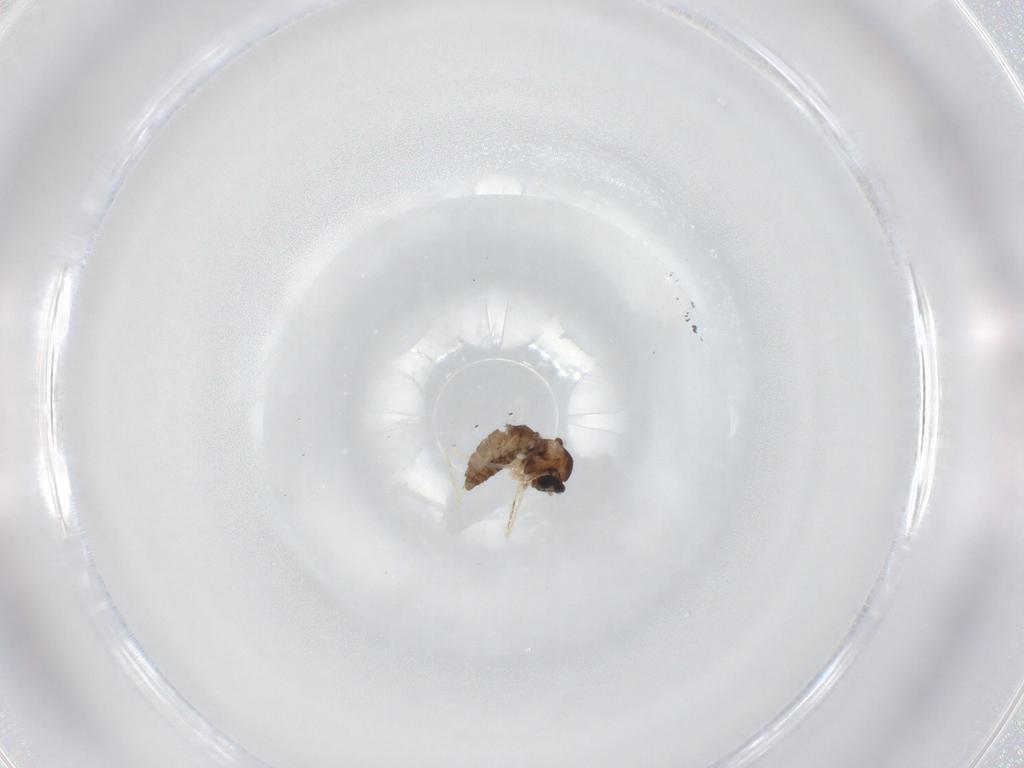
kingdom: Animalia
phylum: Arthropoda
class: Insecta
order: Diptera
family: Cecidomyiidae
